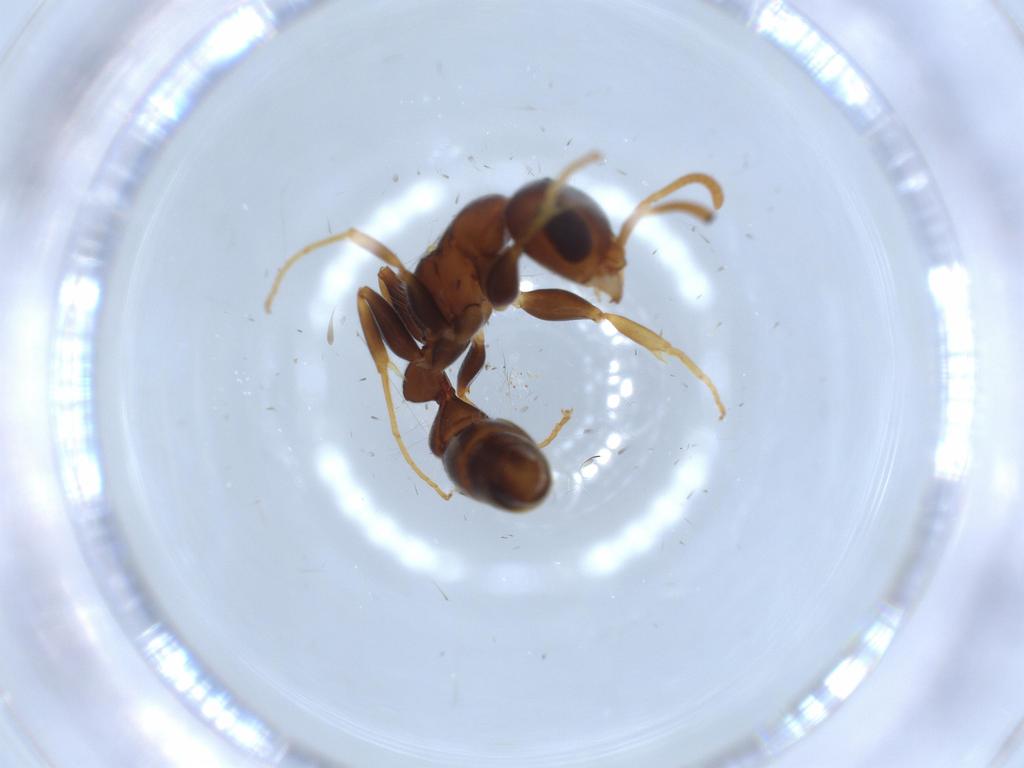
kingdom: Animalia
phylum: Arthropoda
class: Insecta
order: Hymenoptera
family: Formicidae
